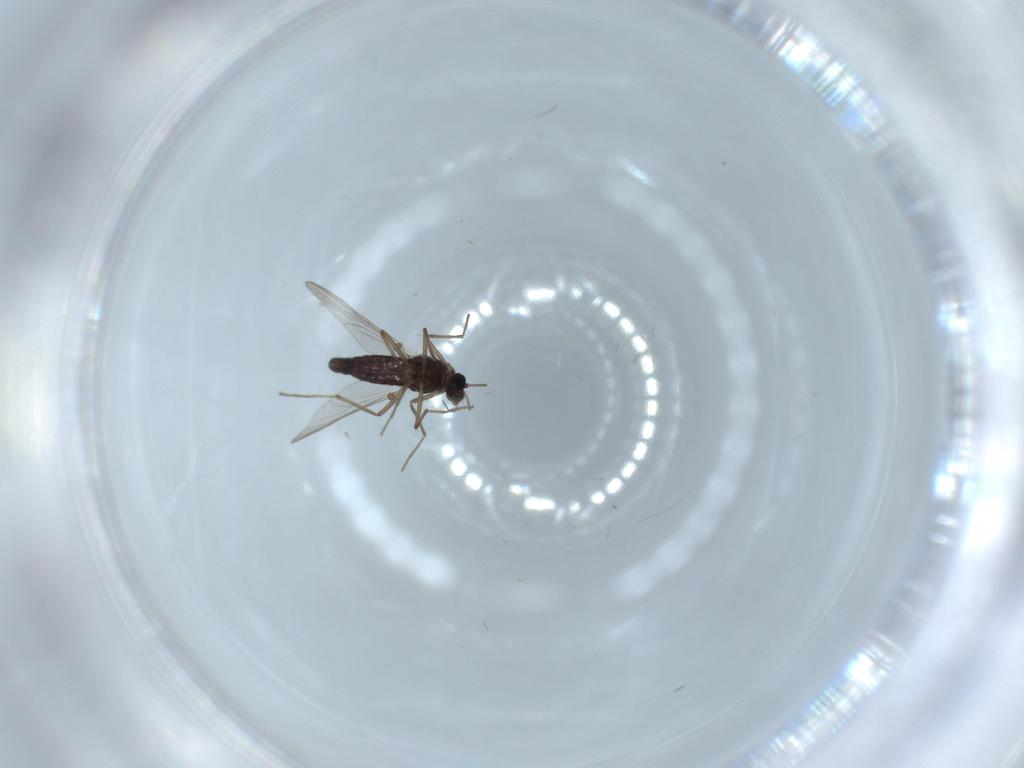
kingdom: Animalia
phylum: Arthropoda
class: Insecta
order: Diptera
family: Chironomidae
